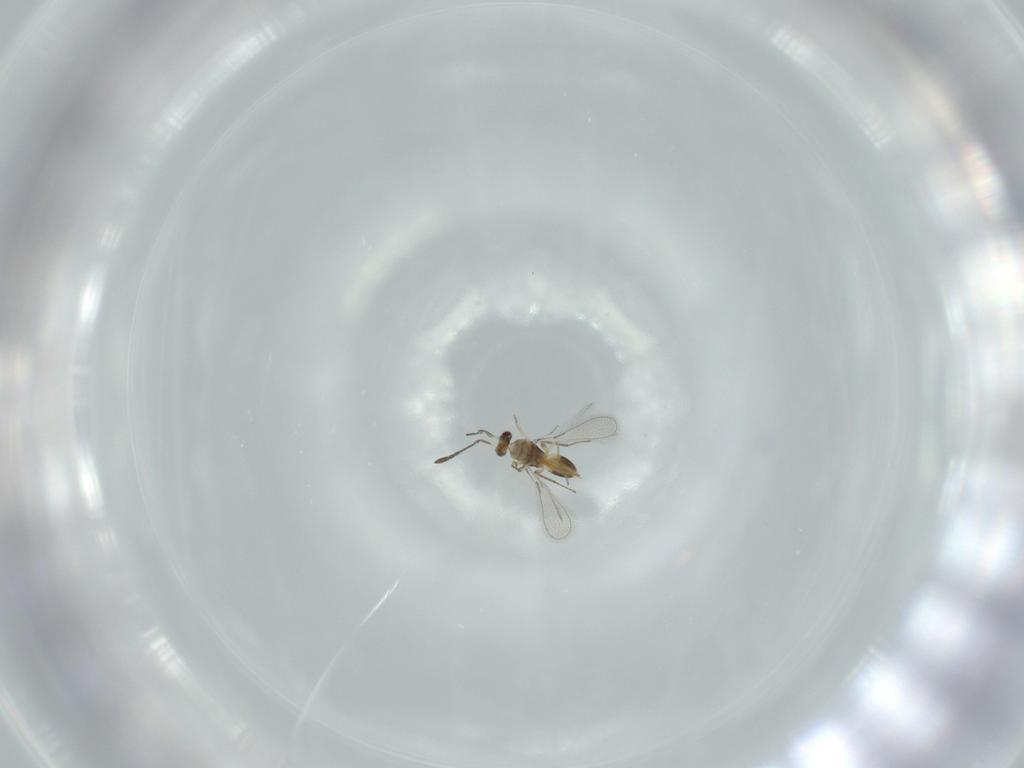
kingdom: Animalia
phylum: Arthropoda
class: Insecta
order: Hymenoptera
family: Mymaridae
